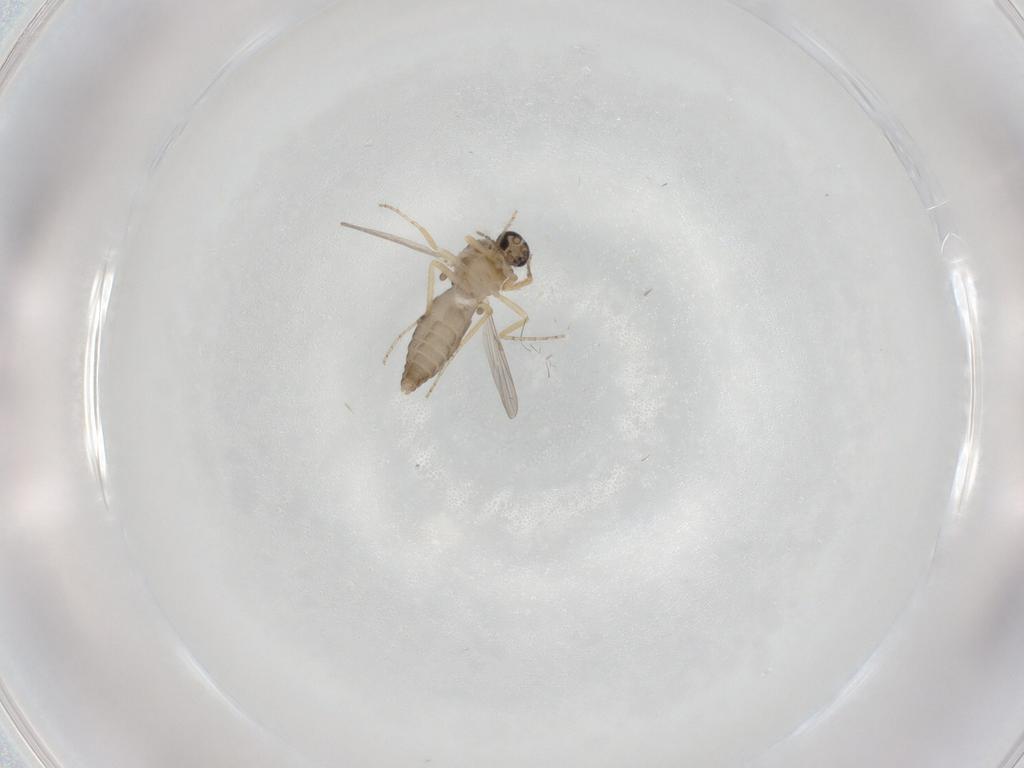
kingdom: Animalia
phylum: Arthropoda
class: Insecta
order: Diptera
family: Ceratopogonidae
